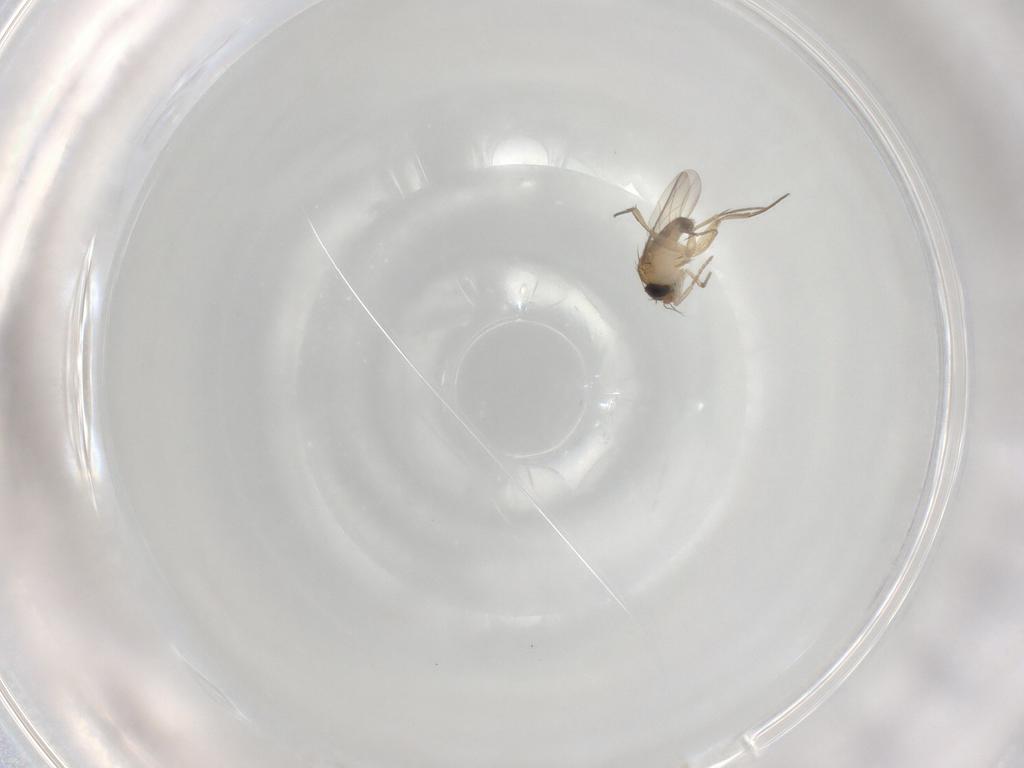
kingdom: Animalia
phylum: Arthropoda
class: Insecta
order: Diptera
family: Phoridae
